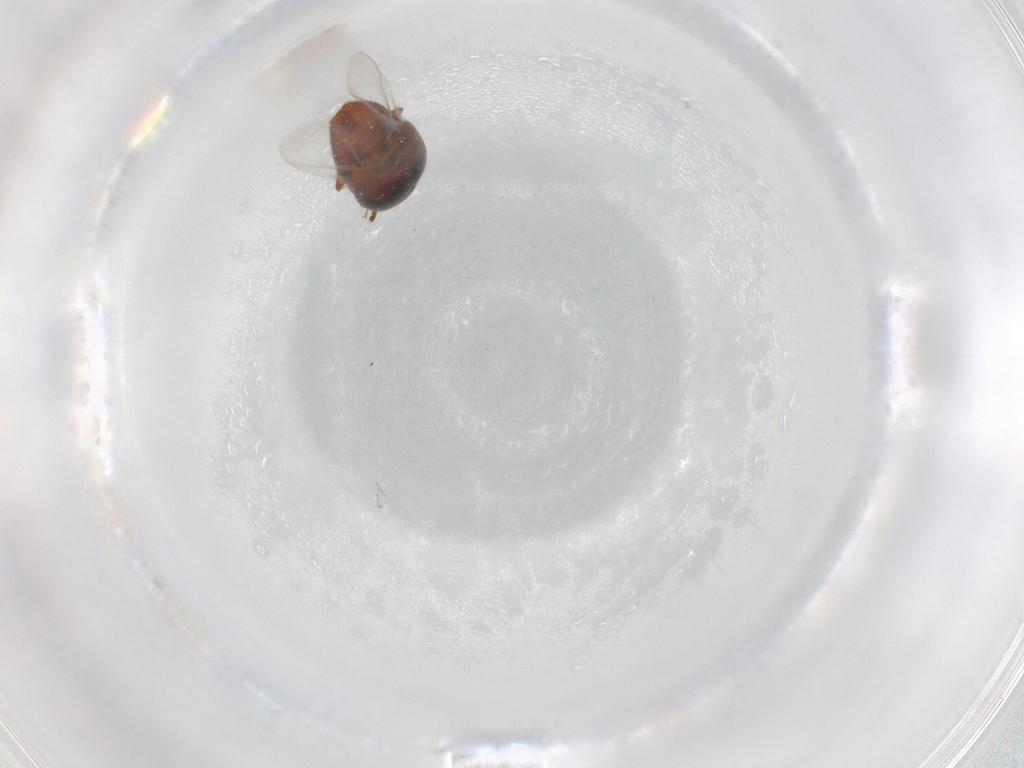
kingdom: Animalia
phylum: Arthropoda
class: Insecta
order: Coleoptera
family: Corylophidae
